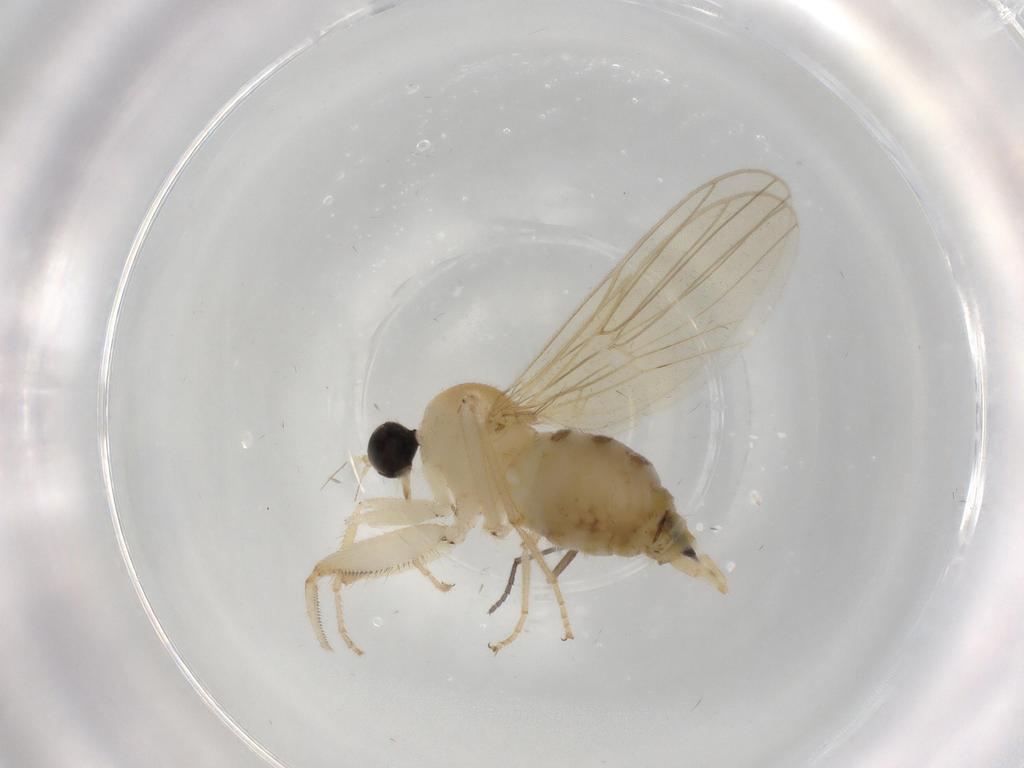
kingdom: Animalia
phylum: Arthropoda
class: Insecta
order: Diptera
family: Hybotidae
